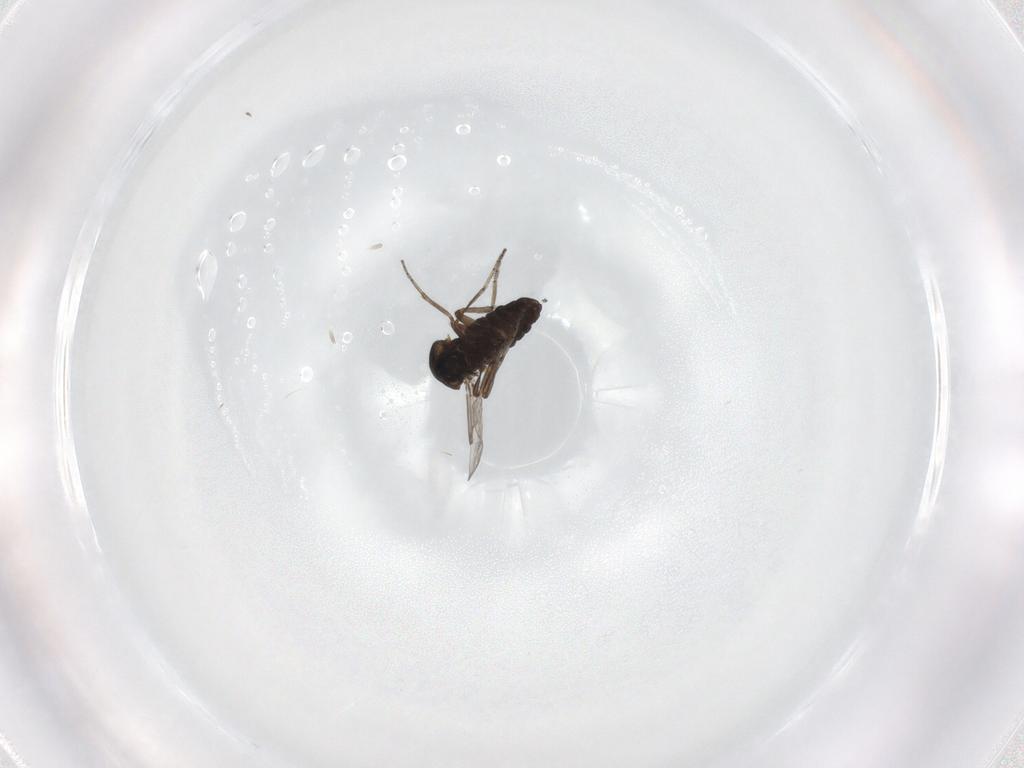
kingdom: Animalia
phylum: Arthropoda
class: Insecta
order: Diptera
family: Ceratopogonidae
